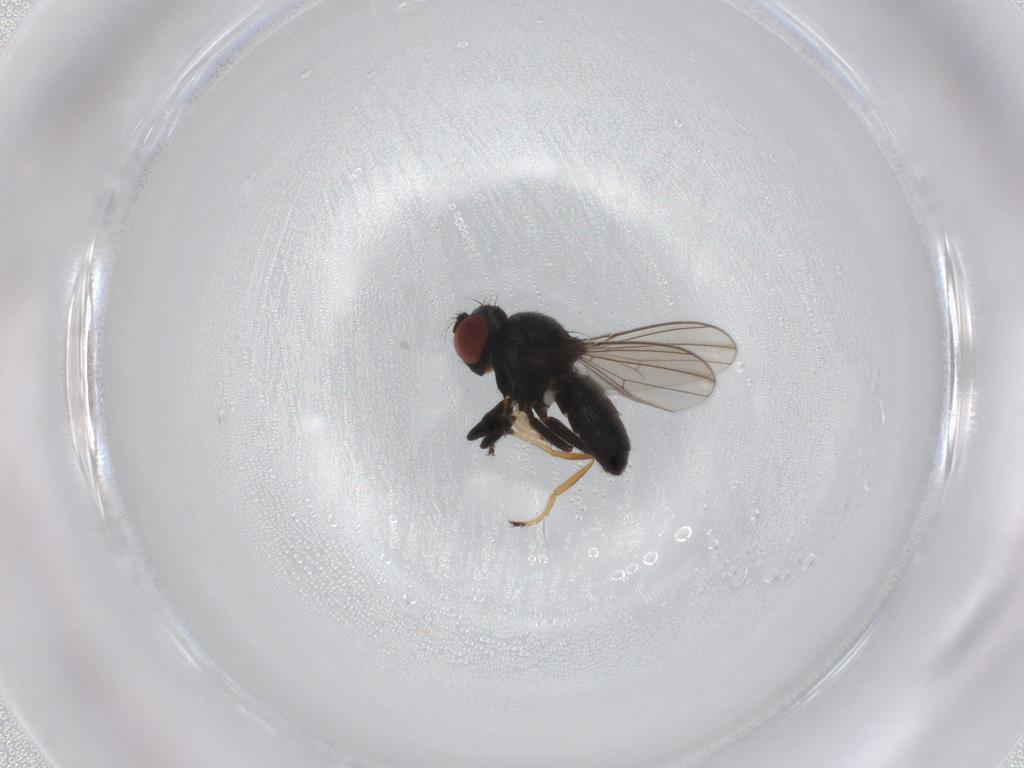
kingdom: Animalia
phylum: Arthropoda
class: Insecta
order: Diptera
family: Ephydridae
